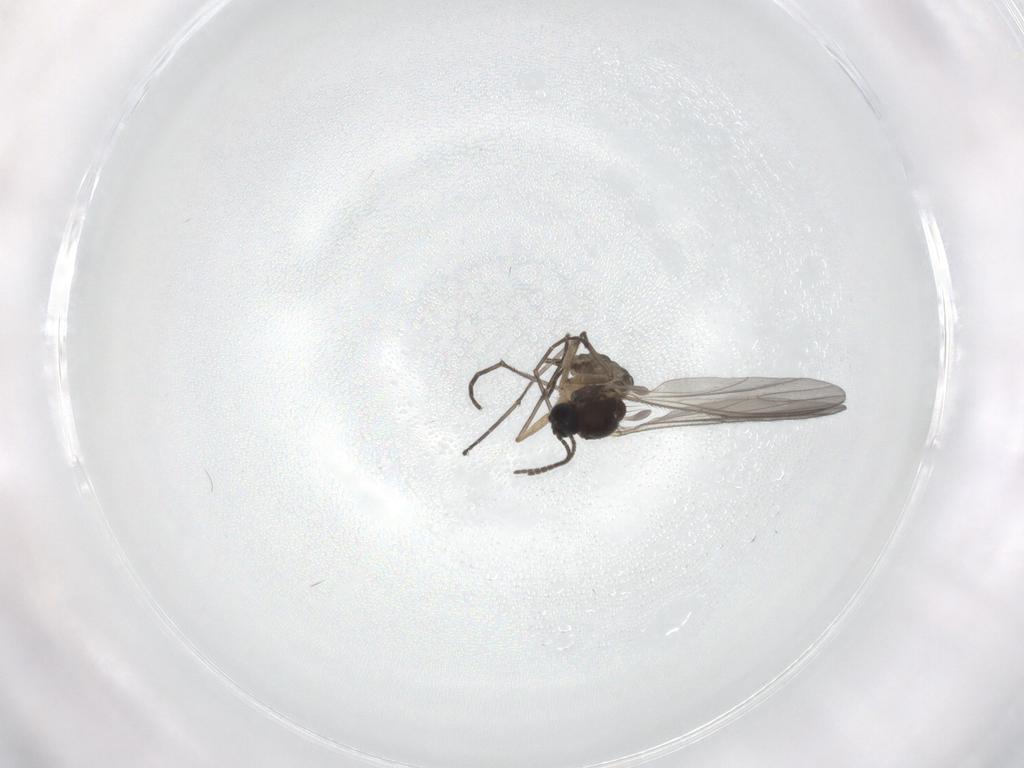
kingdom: Animalia
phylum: Arthropoda
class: Insecta
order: Diptera
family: Sciaridae
